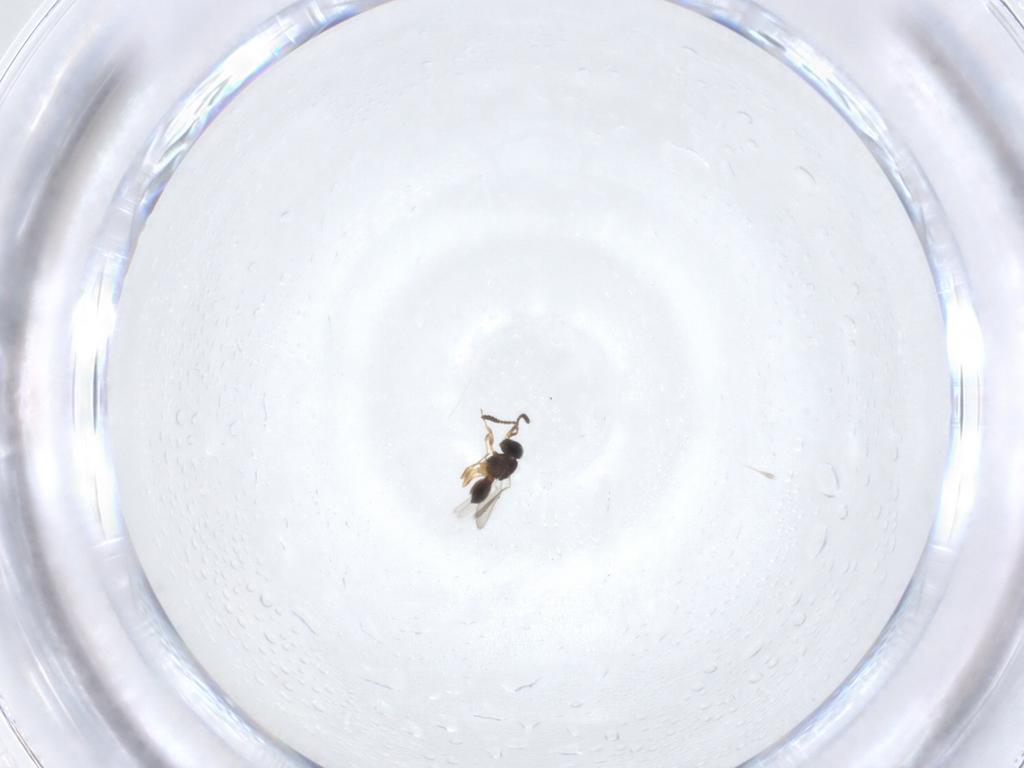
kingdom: Animalia
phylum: Arthropoda
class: Insecta
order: Hymenoptera
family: Scelionidae
